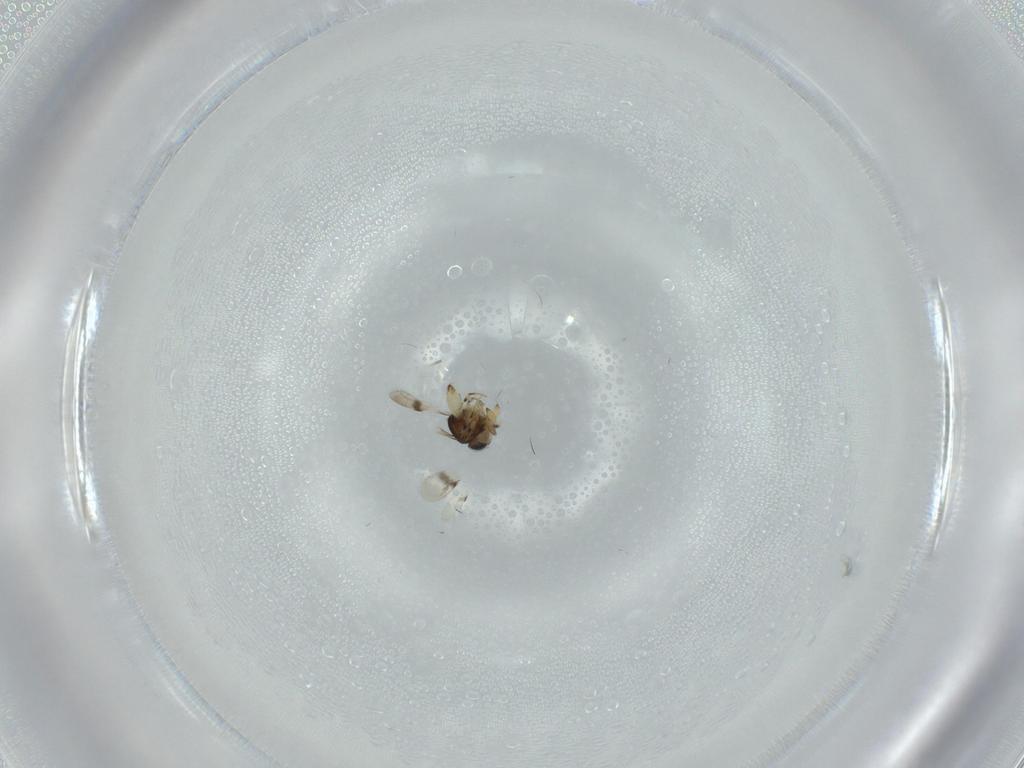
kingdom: Animalia
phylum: Arthropoda
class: Insecta
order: Hymenoptera
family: Scelionidae
